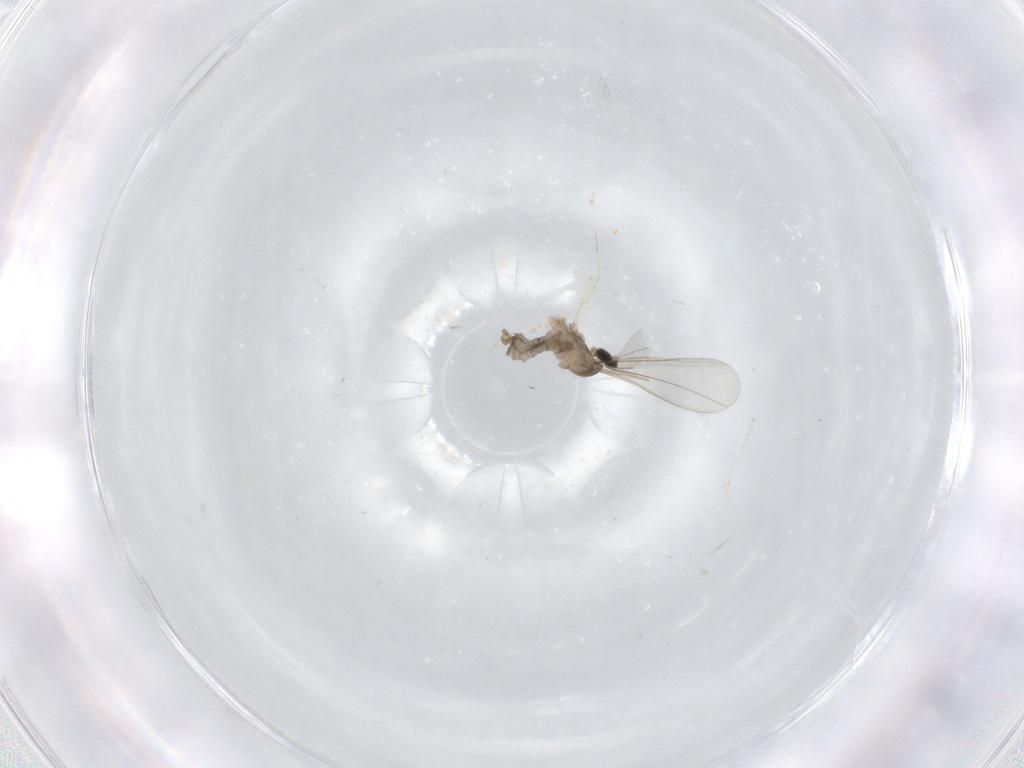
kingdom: Animalia
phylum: Arthropoda
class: Insecta
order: Diptera
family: Cecidomyiidae
